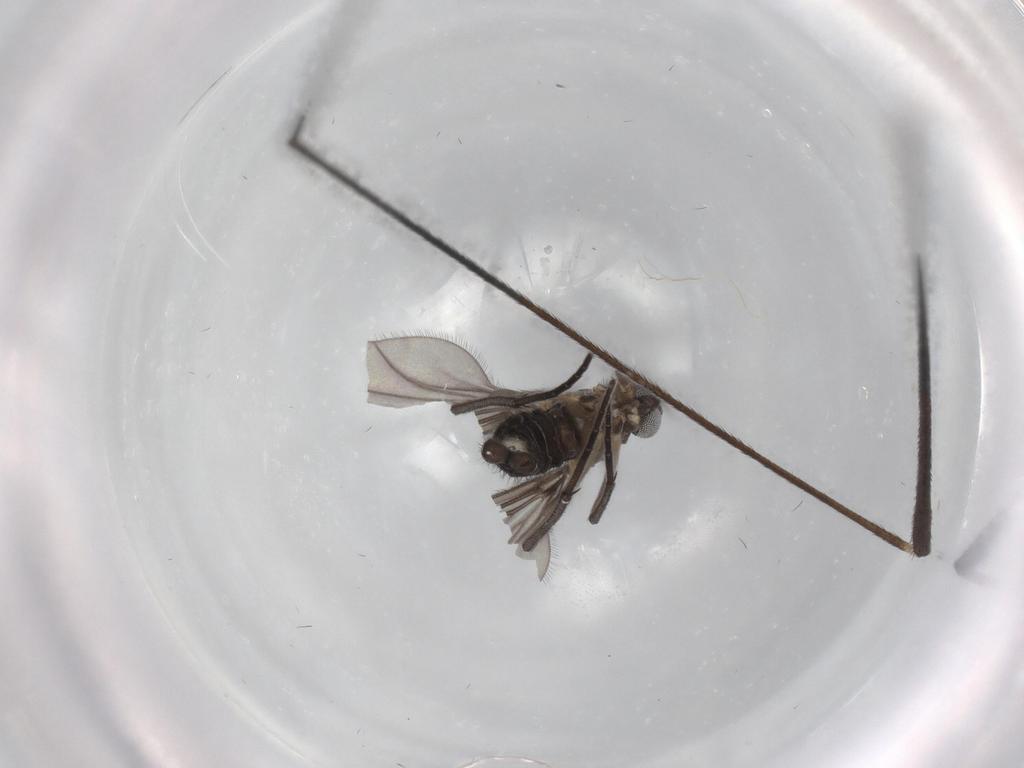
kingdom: Animalia
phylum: Arthropoda
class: Insecta
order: Diptera
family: Sciaridae
